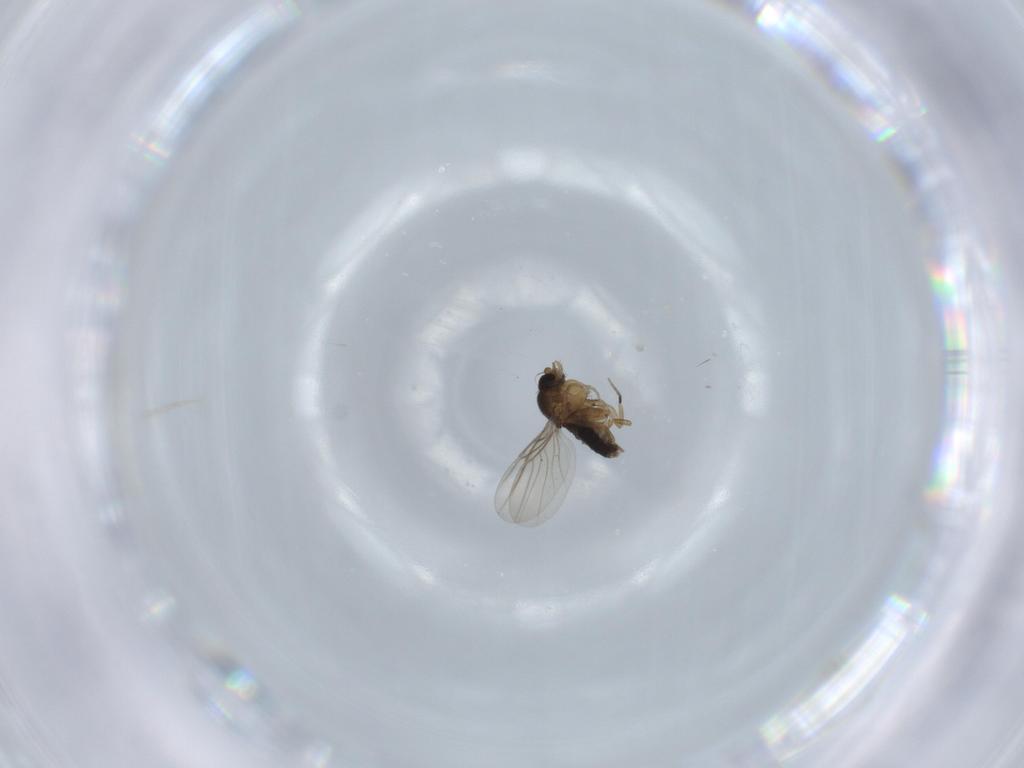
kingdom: Animalia
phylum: Arthropoda
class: Insecta
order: Diptera
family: Phoridae
